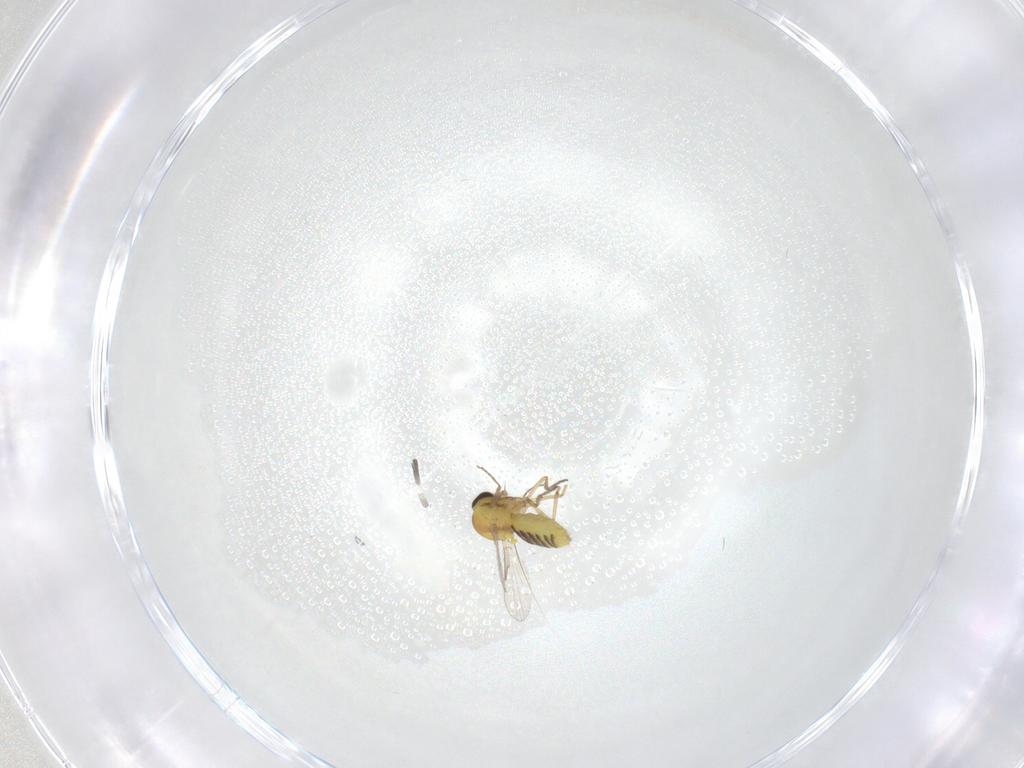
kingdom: Animalia
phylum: Arthropoda
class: Insecta
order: Diptera
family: Ceratopogonidae
